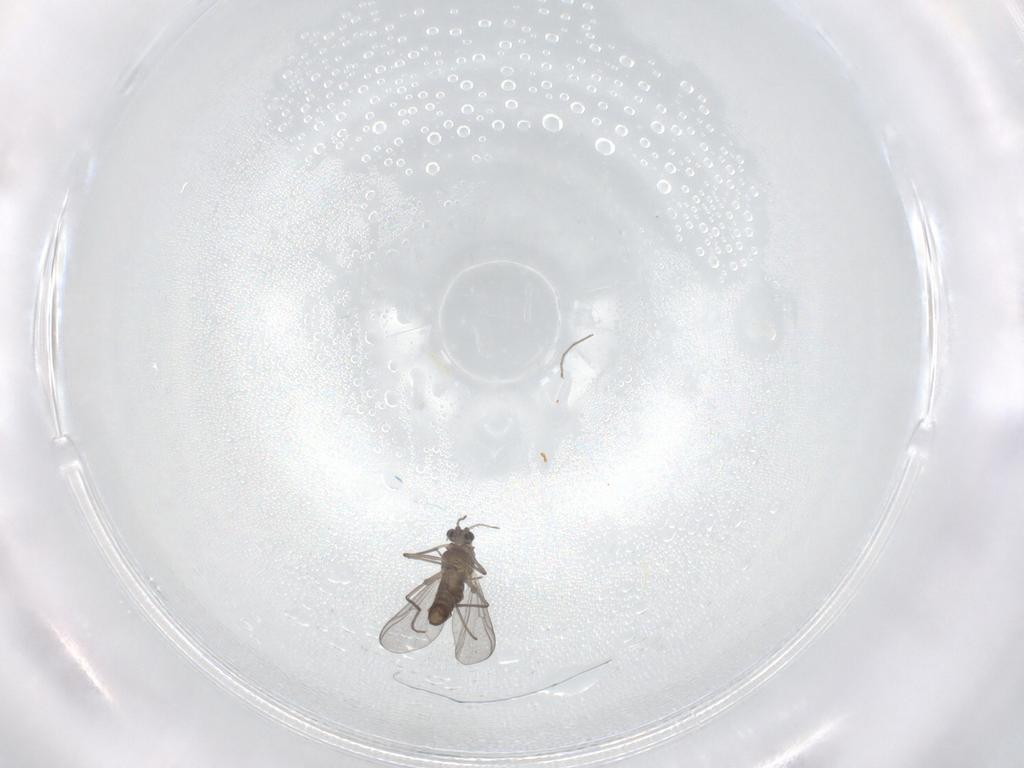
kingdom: Animalia
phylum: Arthropoda
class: Insecta
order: Diptera
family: Chironomidae
